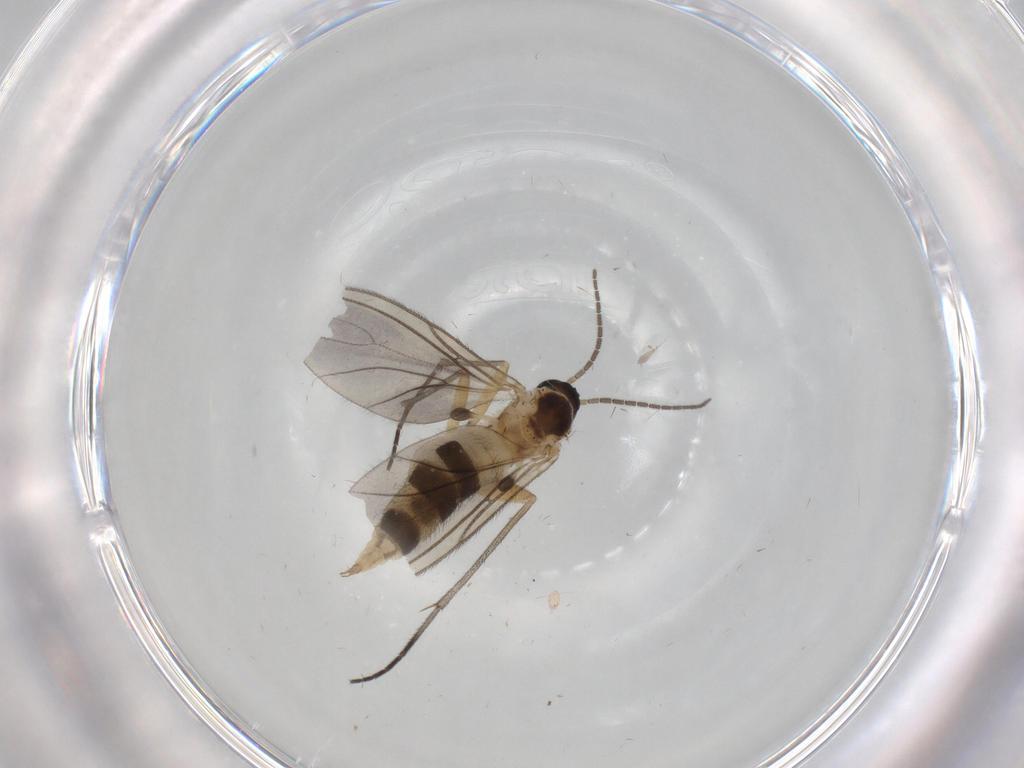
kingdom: Animalia
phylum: Arthropoda
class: Insecta
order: Diptera
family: Sciaridae
